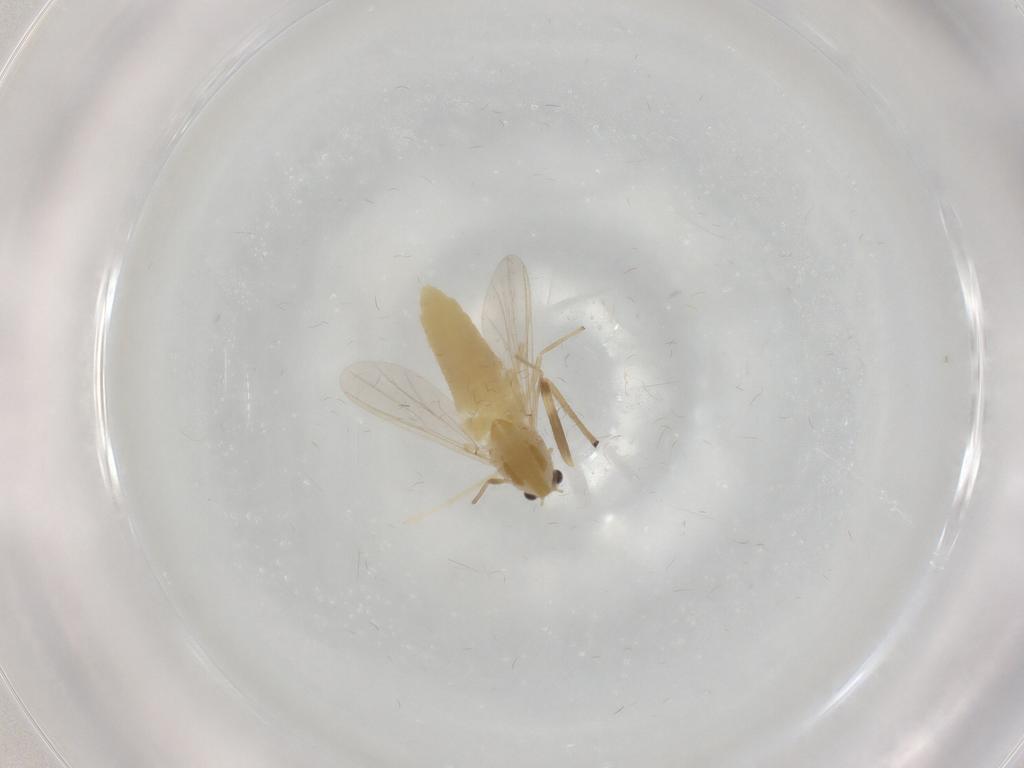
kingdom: Animalia
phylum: Arthropoda
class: Insecta
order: Diptera
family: Chironomidae
